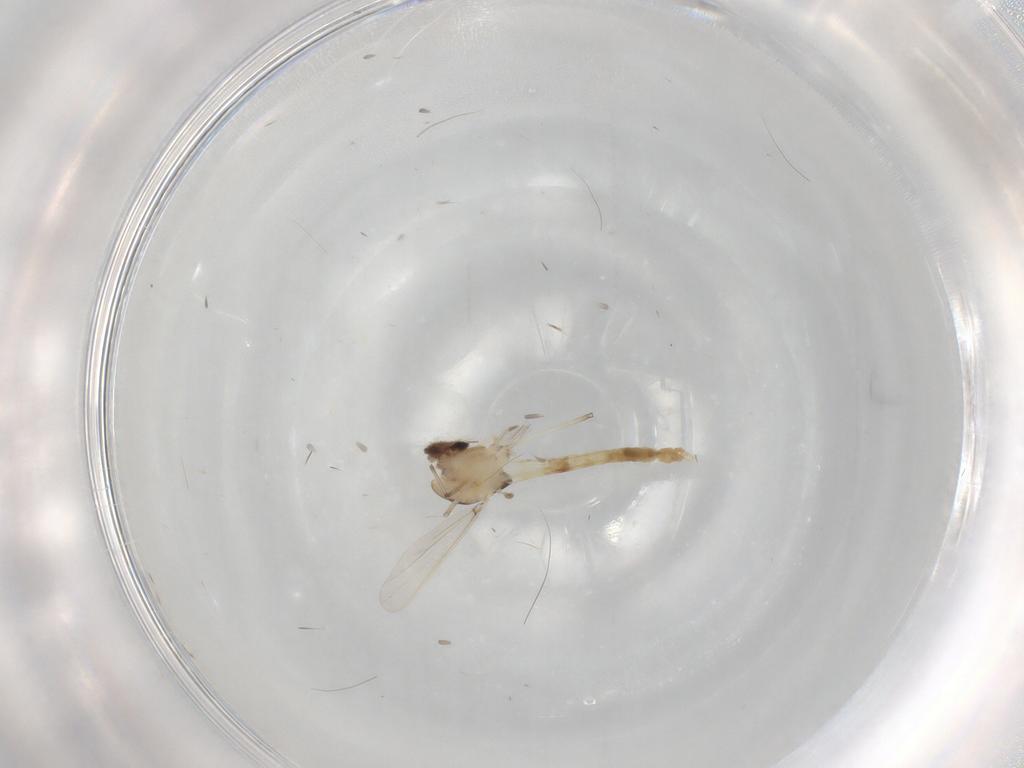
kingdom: Animalia
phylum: Arthropoda
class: Insecta
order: Diptera
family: Chironomidae
